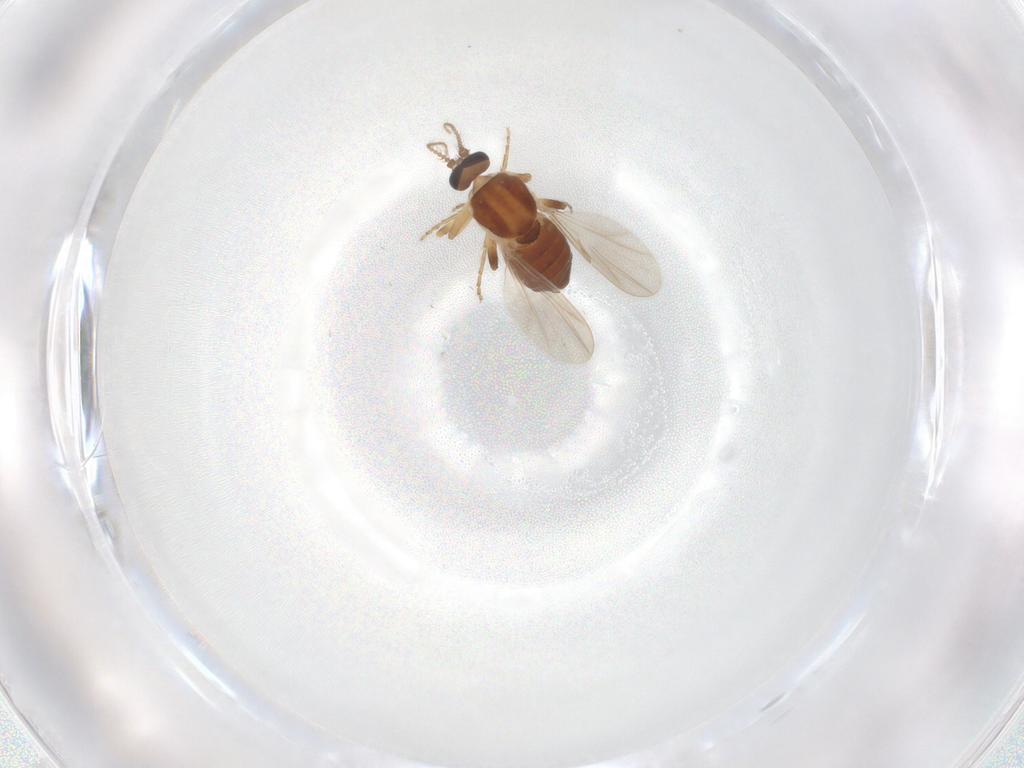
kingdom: Animalia
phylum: Arthropoda
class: Insecta
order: Diptera
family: Ceratopogonidae
